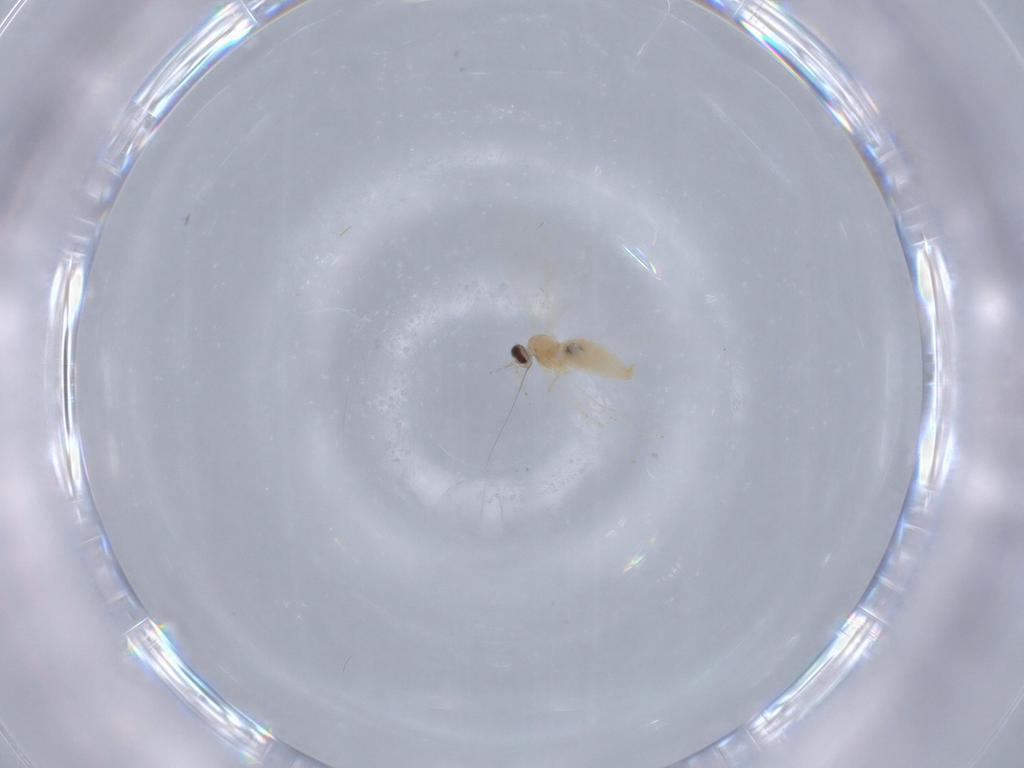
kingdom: Animalia
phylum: Arthropoda
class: Insecta
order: Diptera
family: Cecidomyiidae
